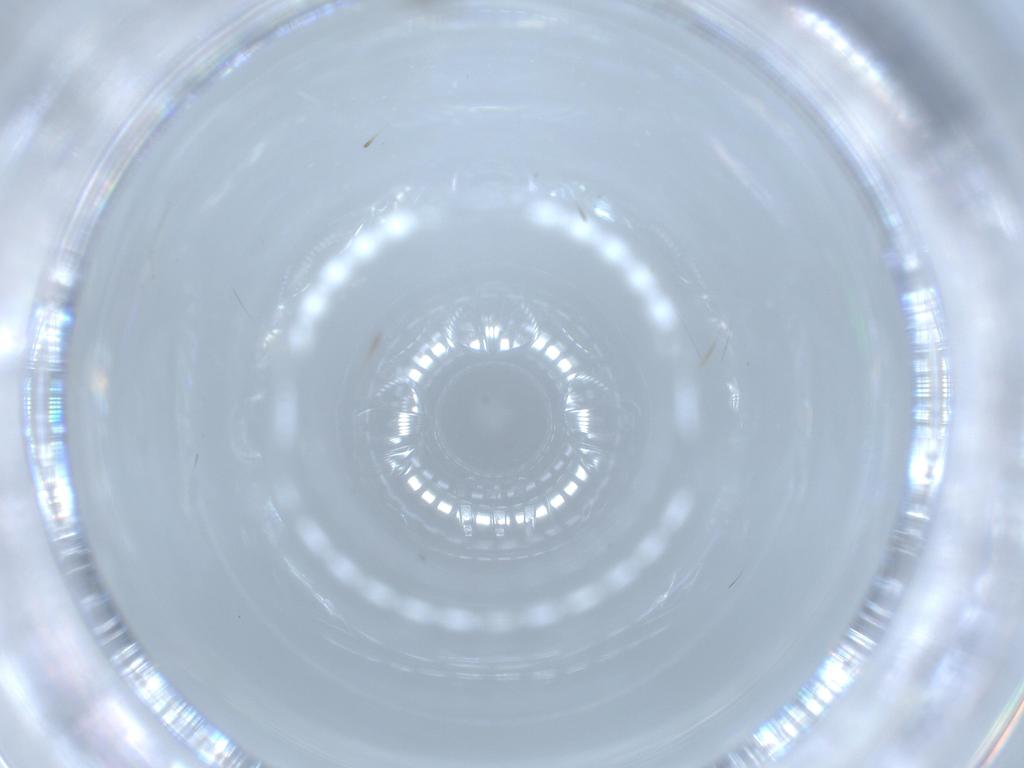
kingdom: Animalia
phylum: Arthropoda
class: Insecta
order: Diptera
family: Cecidomyiidae
